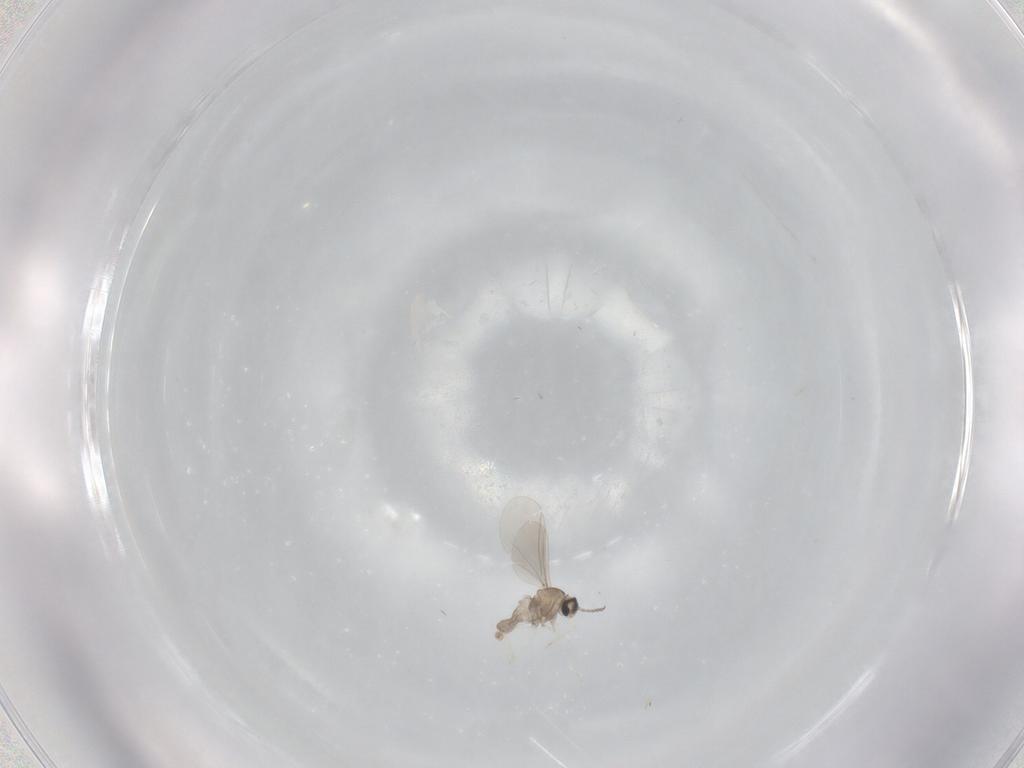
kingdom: Animalia
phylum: Arthropoda
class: Insecta
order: Diptera
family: Cecidomyiidae
